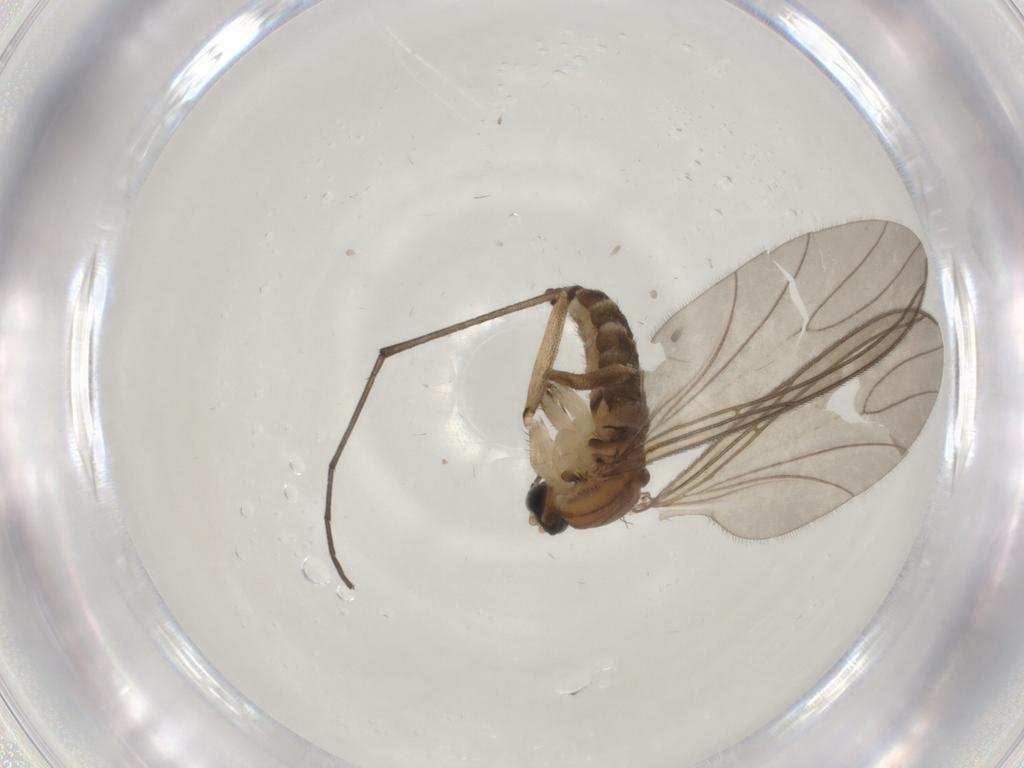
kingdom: Animalia
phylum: Arthropoda
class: Insecta
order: Diptera
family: Sciaridae
